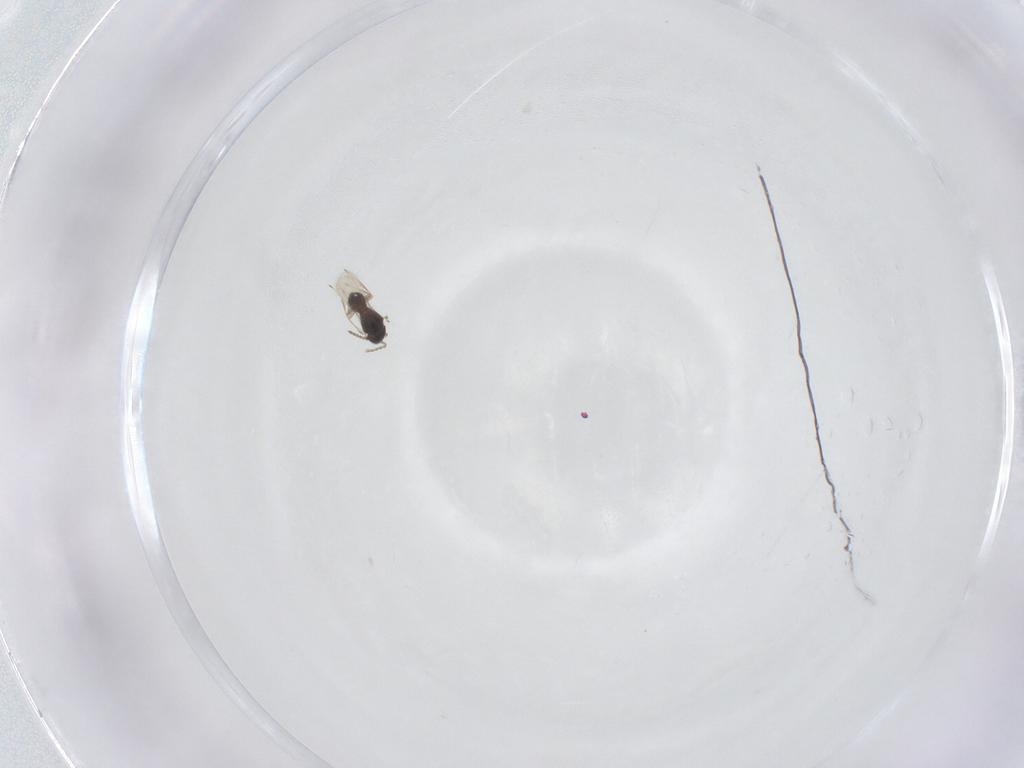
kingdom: Animalia
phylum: Arthropoda
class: Insecta
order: Hymenoptera
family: Scelionidae
